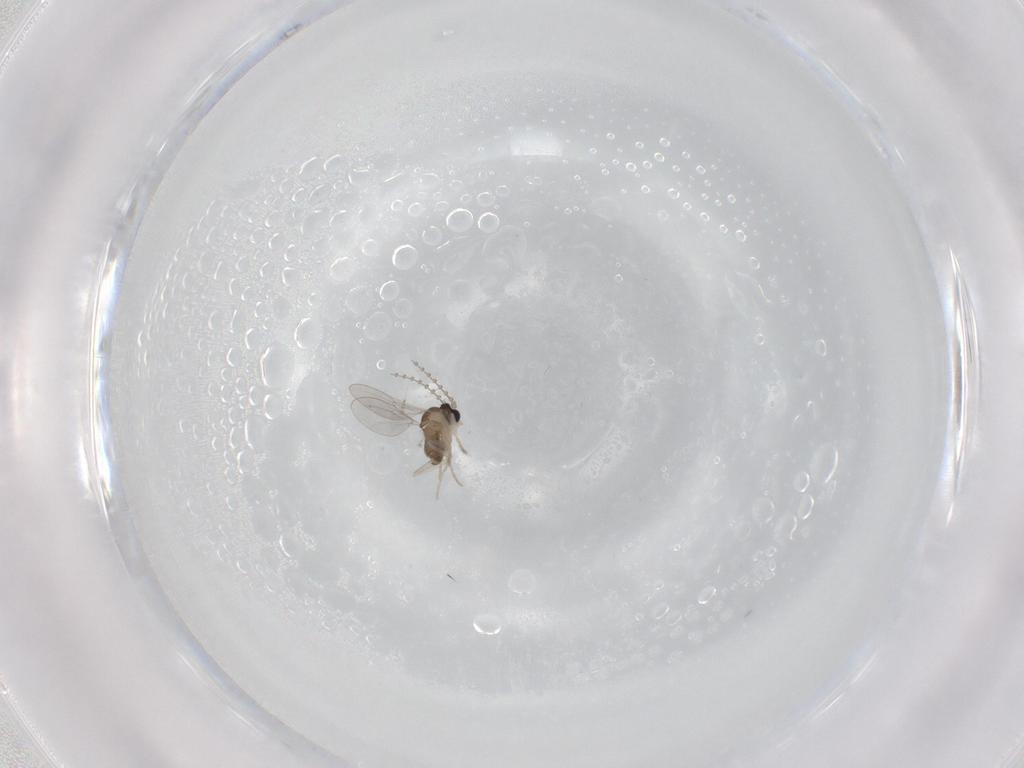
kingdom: Animalia
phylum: Arthropoda
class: Insecta
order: Diptera
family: Cecidomyiidae
